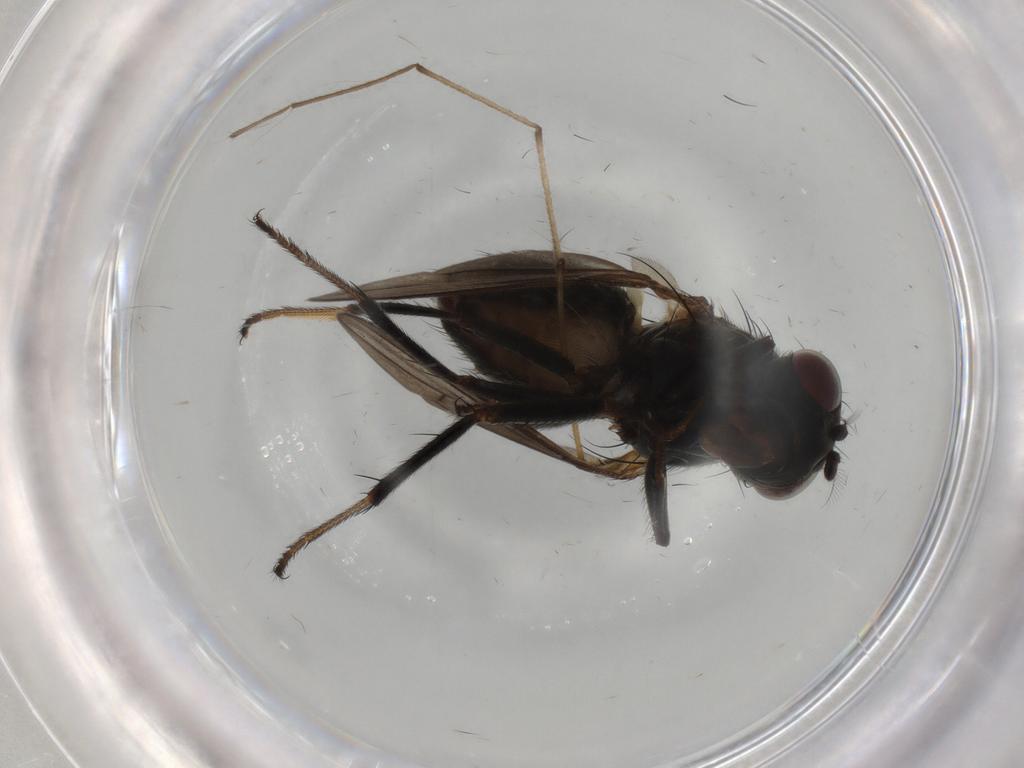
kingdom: Animalia
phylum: Arthropoda
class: Insecta
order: Diptera
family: Ephydridae
